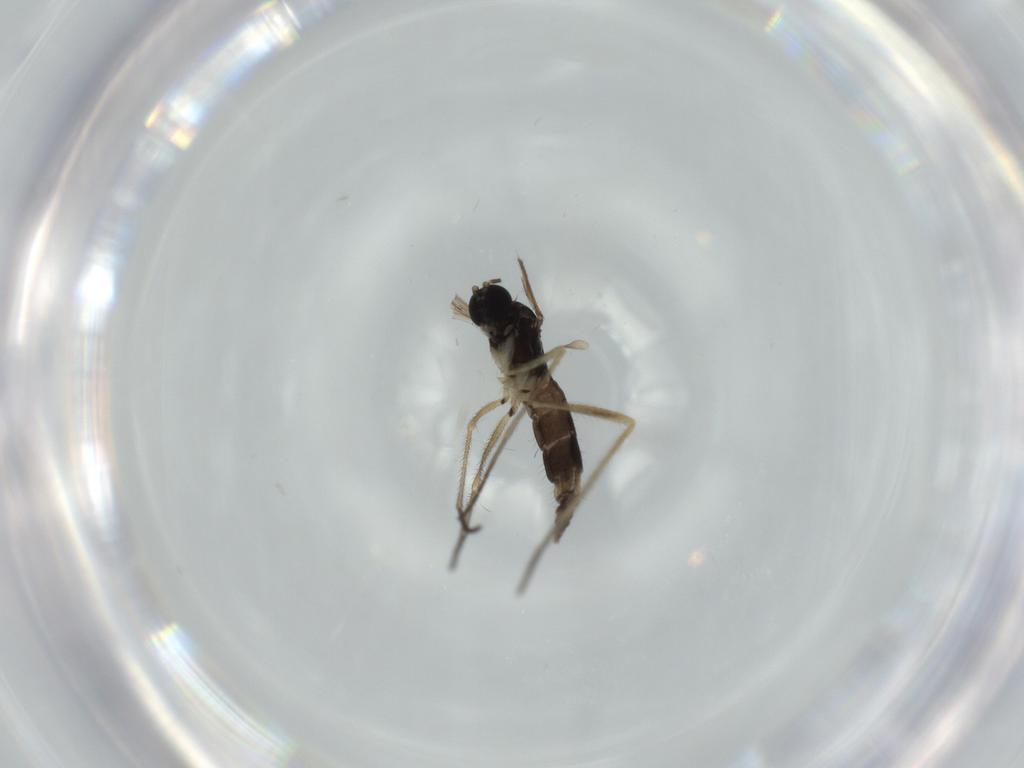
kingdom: Animalia
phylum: Arthropoda
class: Insecta
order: Diptera
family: Sciaridae
